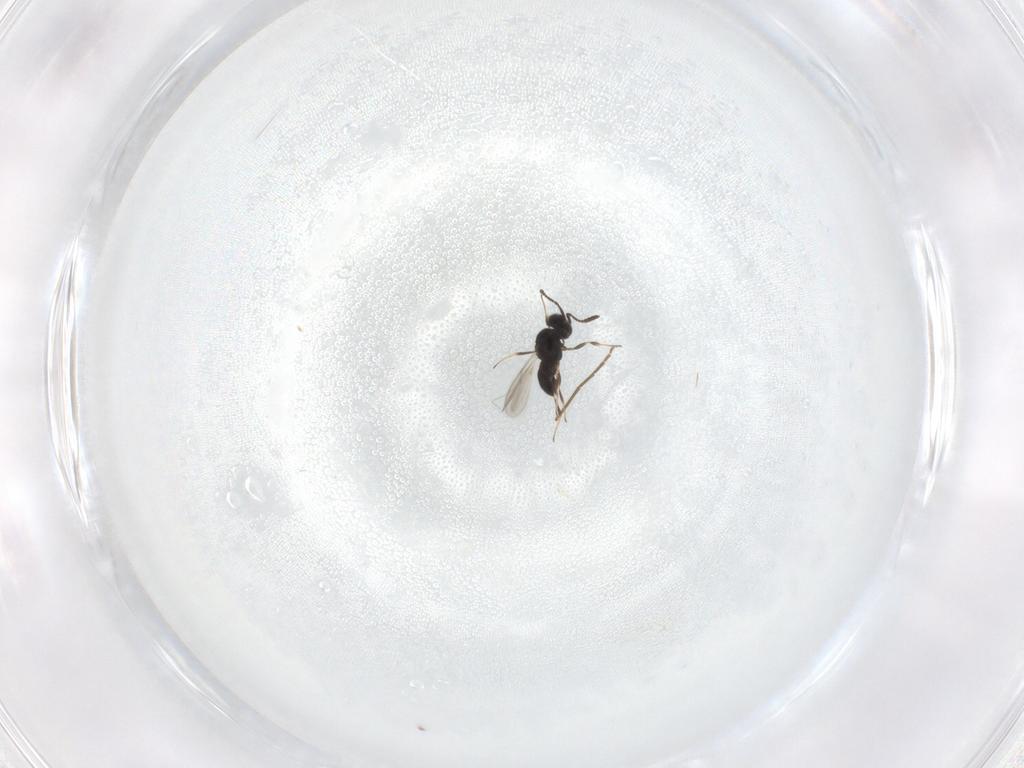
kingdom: Animalia
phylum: Arthropoda
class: Insecta
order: Hymenoptera
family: Scelionidae
